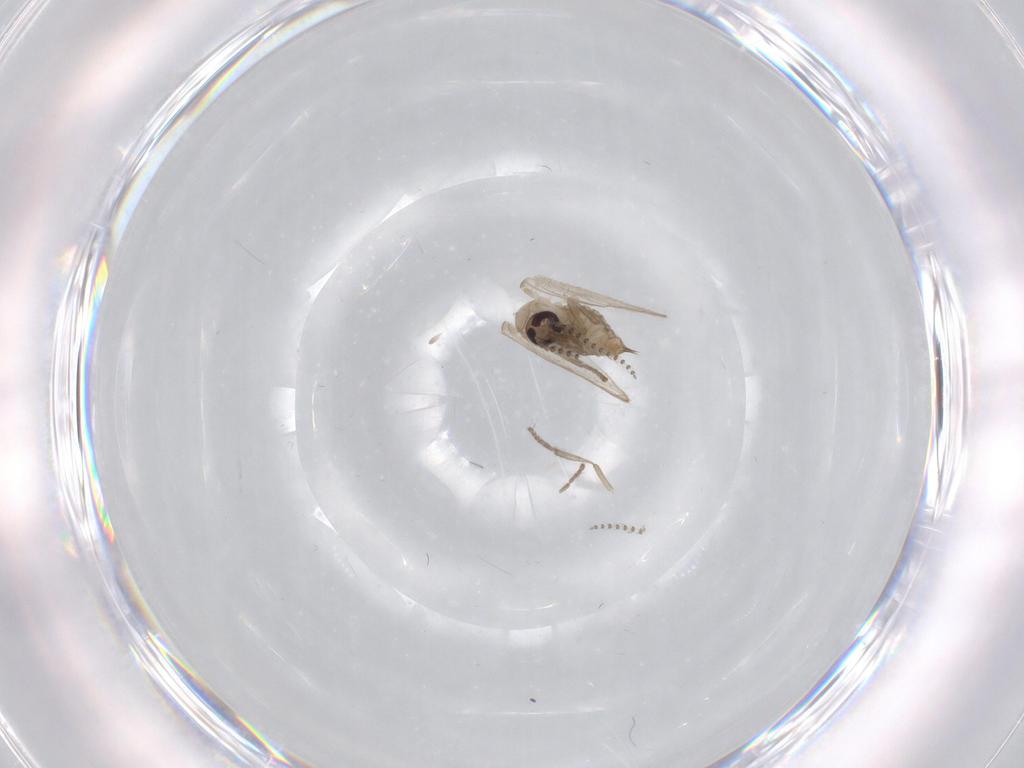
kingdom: Animalia
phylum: Arthropoda
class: Insecta
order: Diptera
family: Psychodidae
